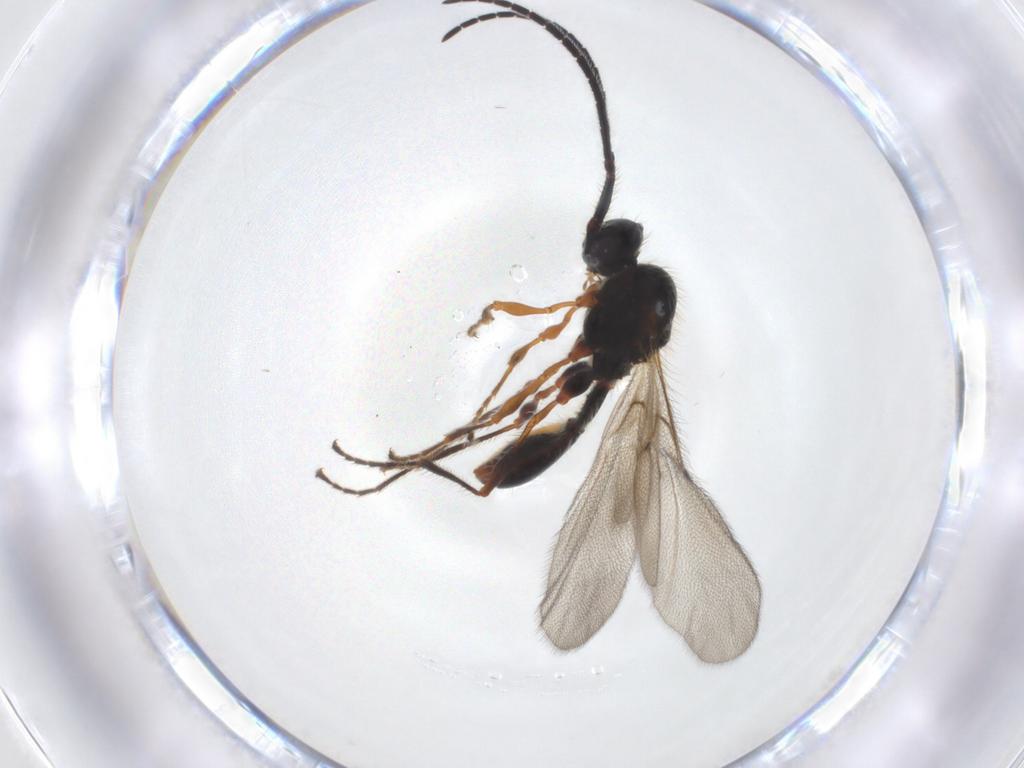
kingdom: Animalia
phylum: Arthropoda
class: Insecta
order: Hymenoptera
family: Diapriidae
